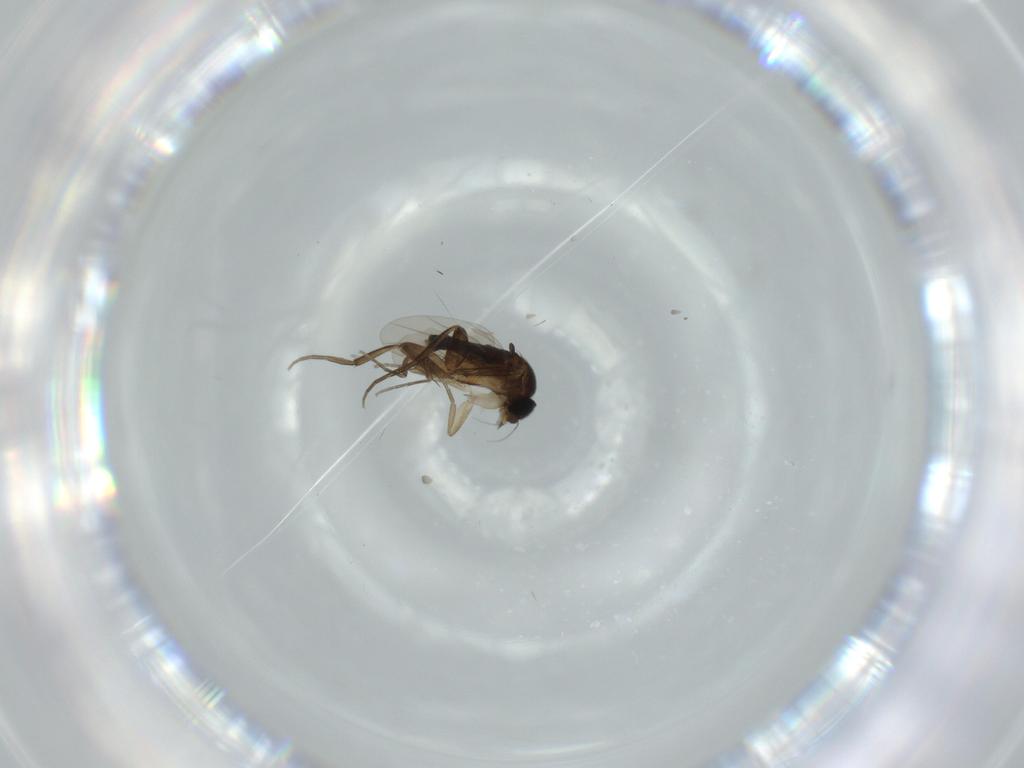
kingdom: Animalia
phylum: Arthropoda
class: Insecta
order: Diptera
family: Phoridae
